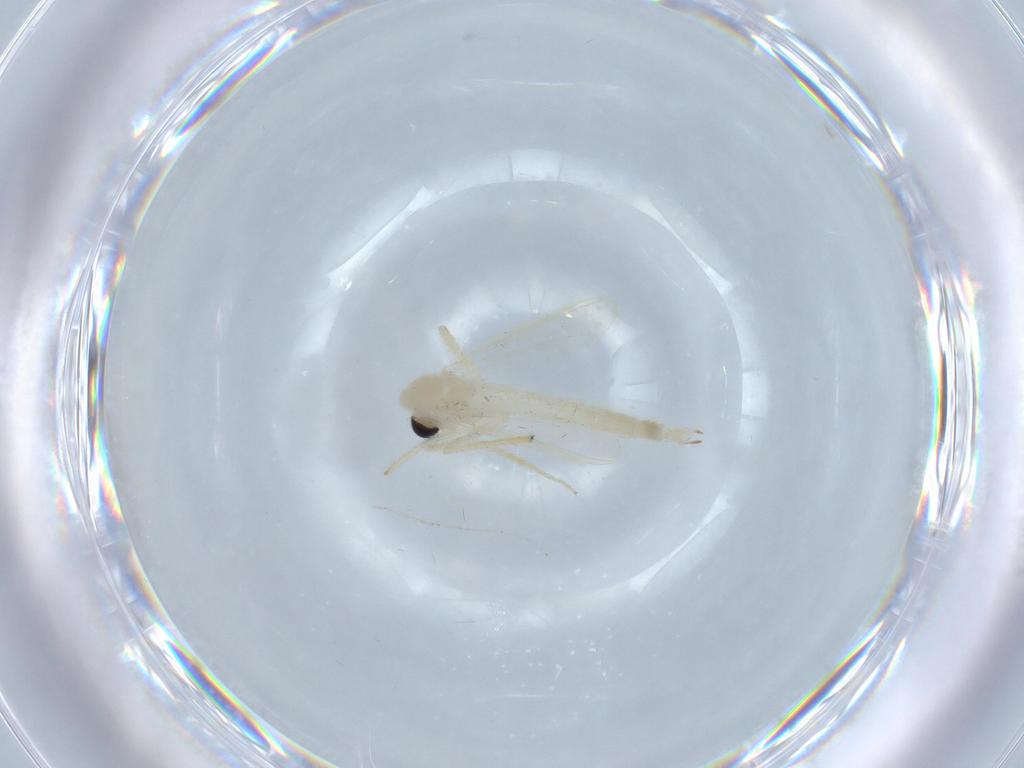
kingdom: Animalia
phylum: Arthropoda
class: Insecta
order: Diptera
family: Chironomidae
